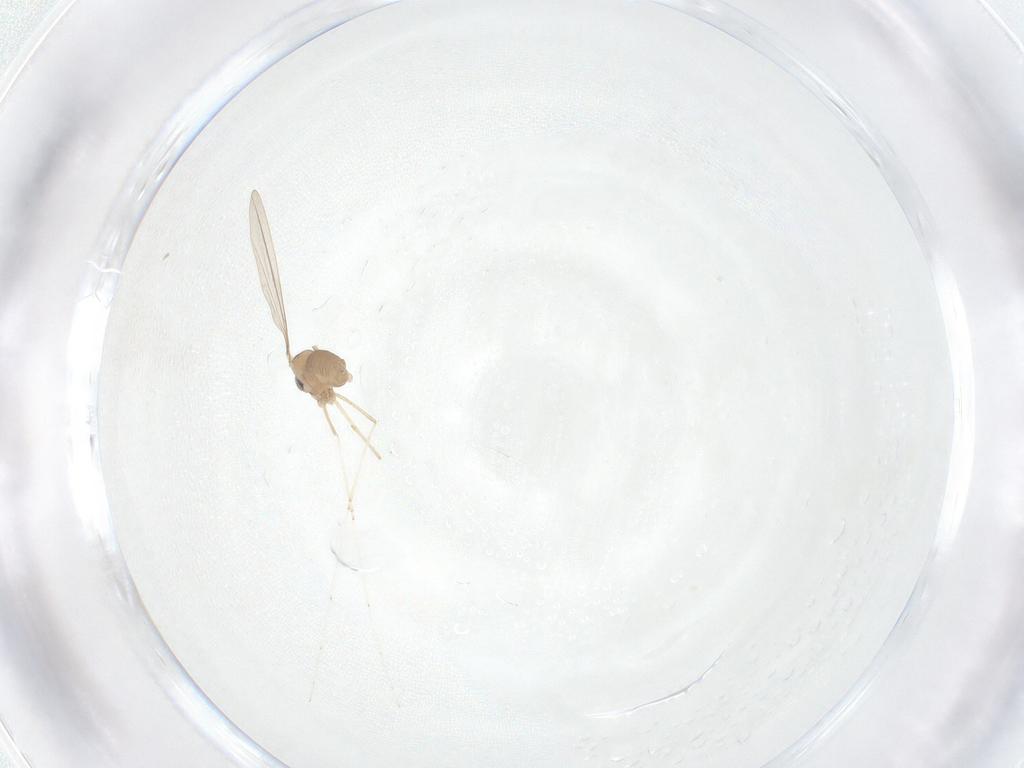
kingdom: Animalia
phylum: Arthropoda
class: Insecta
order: Diptera
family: Cecidomyiidae
